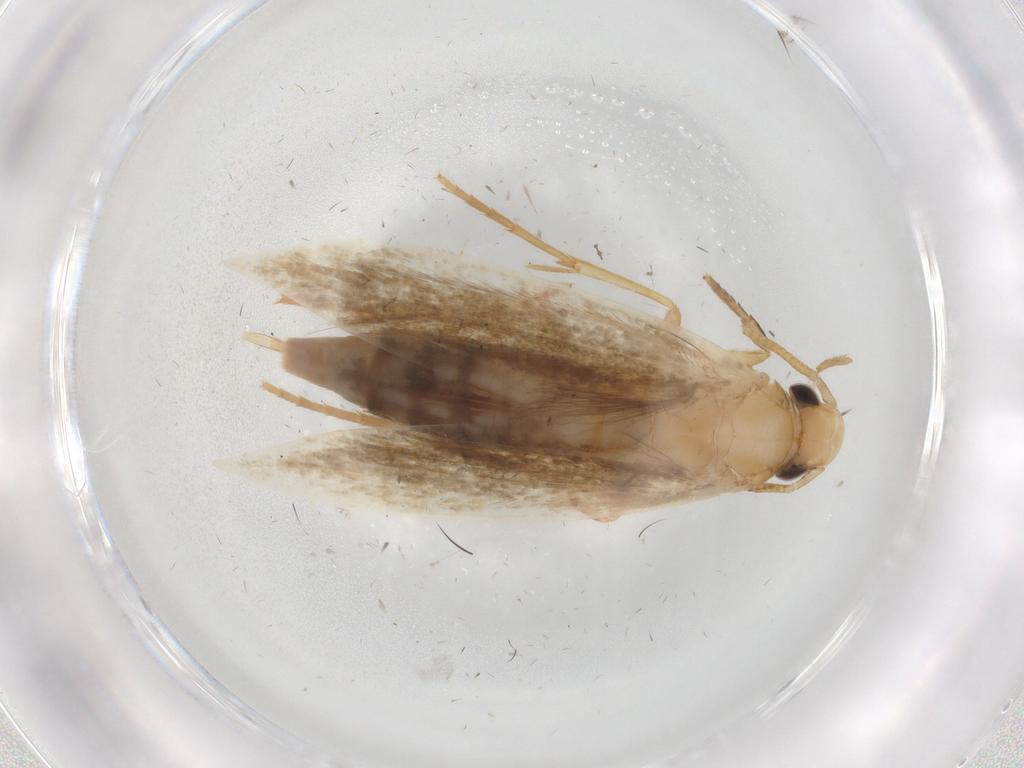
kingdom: Animalia
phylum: Arthropoda
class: Insecta
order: Lepidoptera
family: Tineidae
